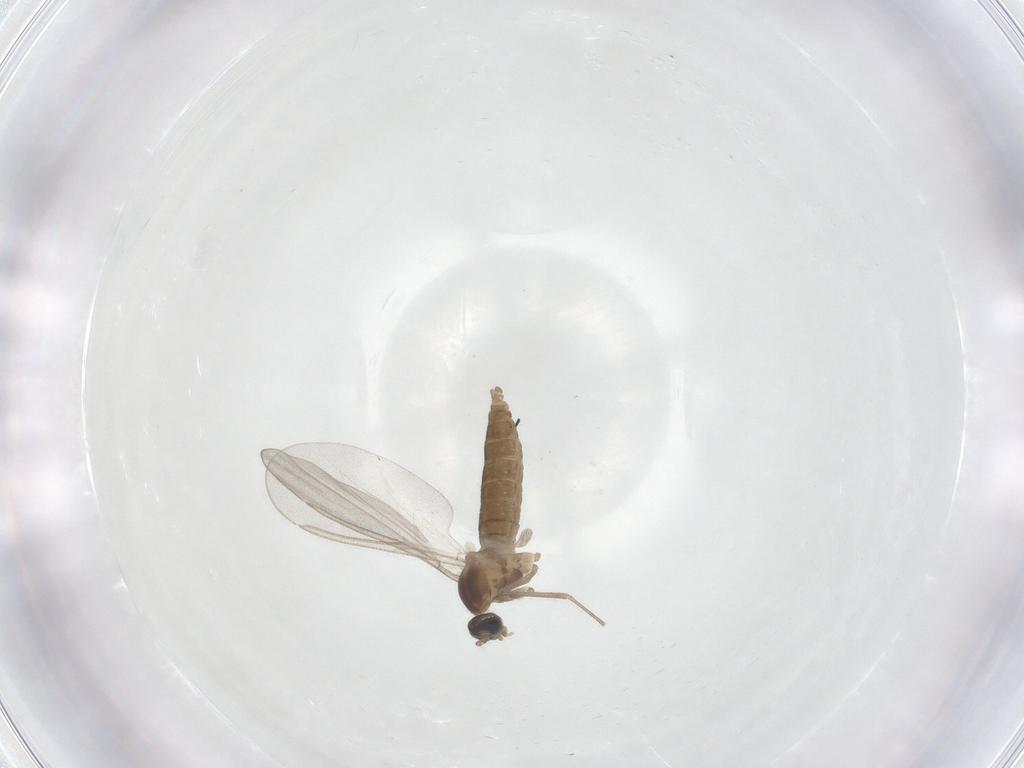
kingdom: Animalia
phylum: Arthropoda
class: Insecta
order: Diptera
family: Cecidomyiidae
